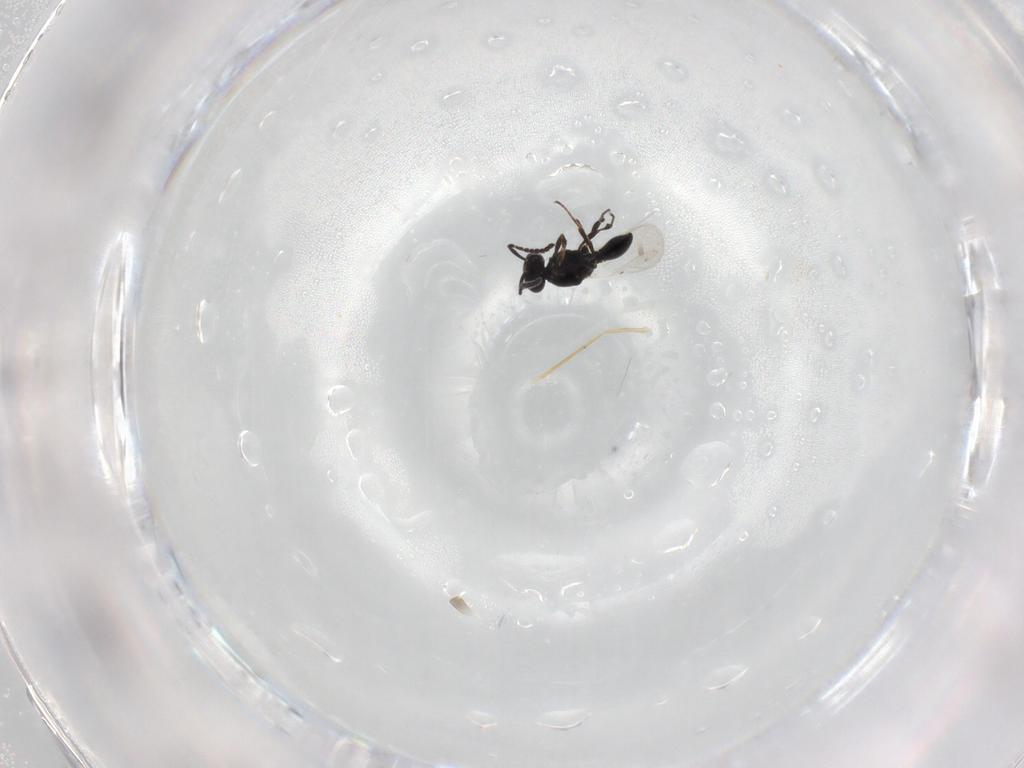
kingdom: Animalia
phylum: Arthropoda
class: Insecta
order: Hymenoptera
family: Platygastridae
